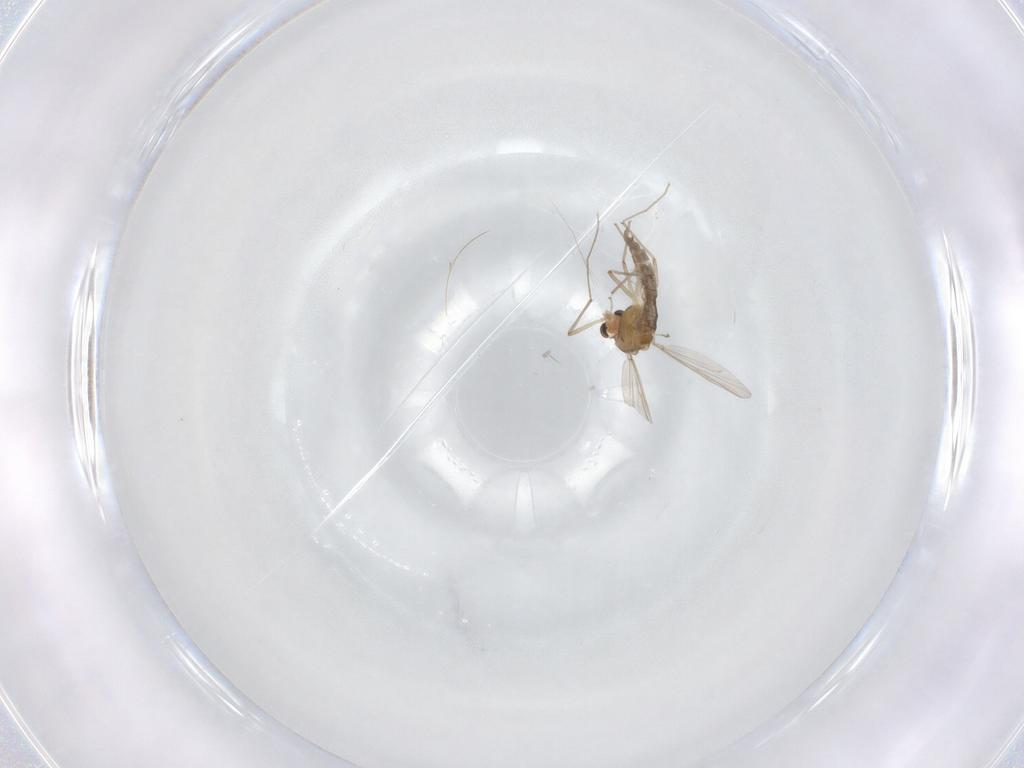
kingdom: Animalia
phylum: Arthropoda
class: Insecta
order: Diptera
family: Chironomidae
